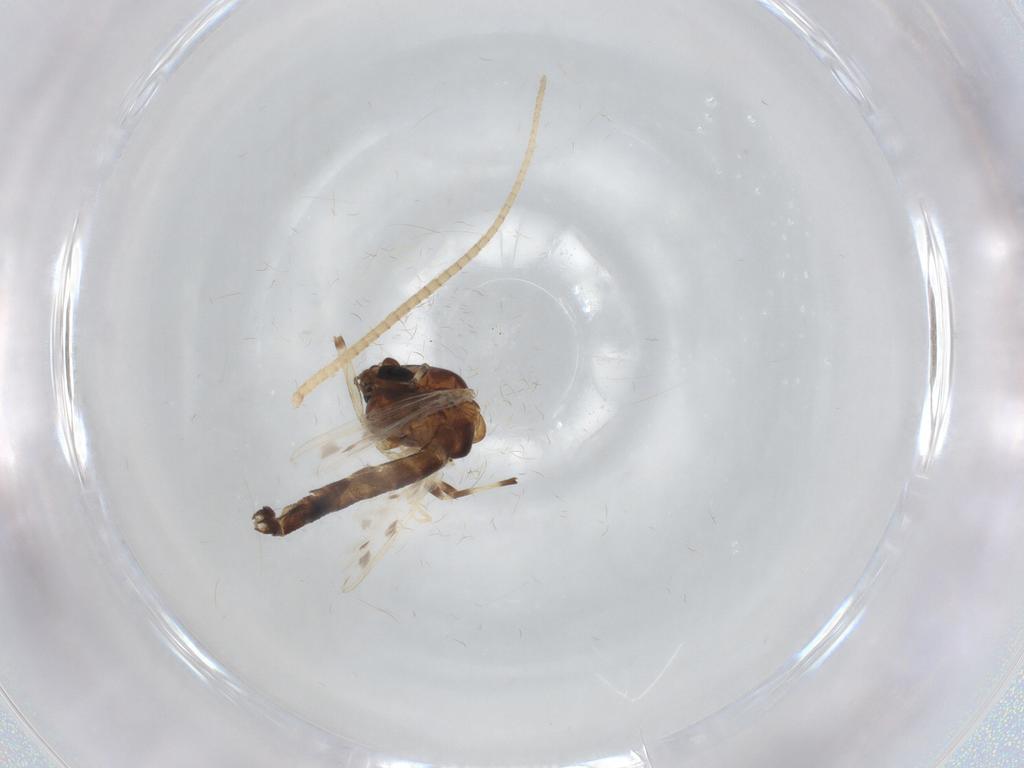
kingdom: Animalia
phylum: Arthropoda
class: Insecta
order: Diptera
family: Chironomidae
